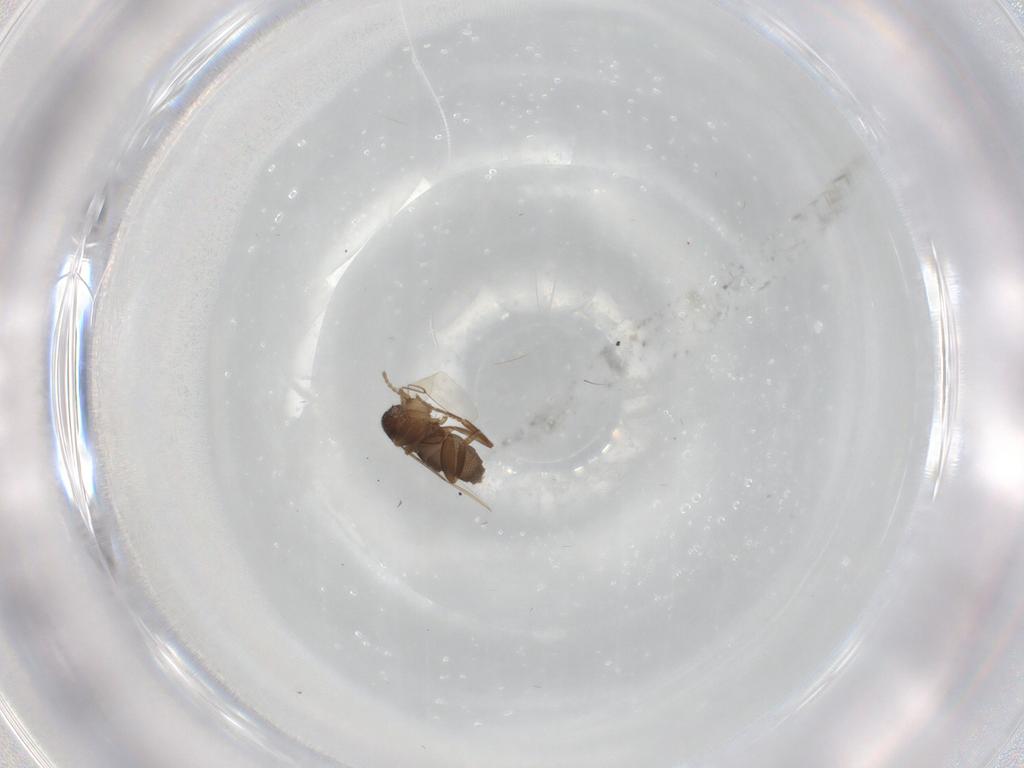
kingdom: Animalia
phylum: Arthropoda
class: Insecta
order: Diptera
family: Phoridae
